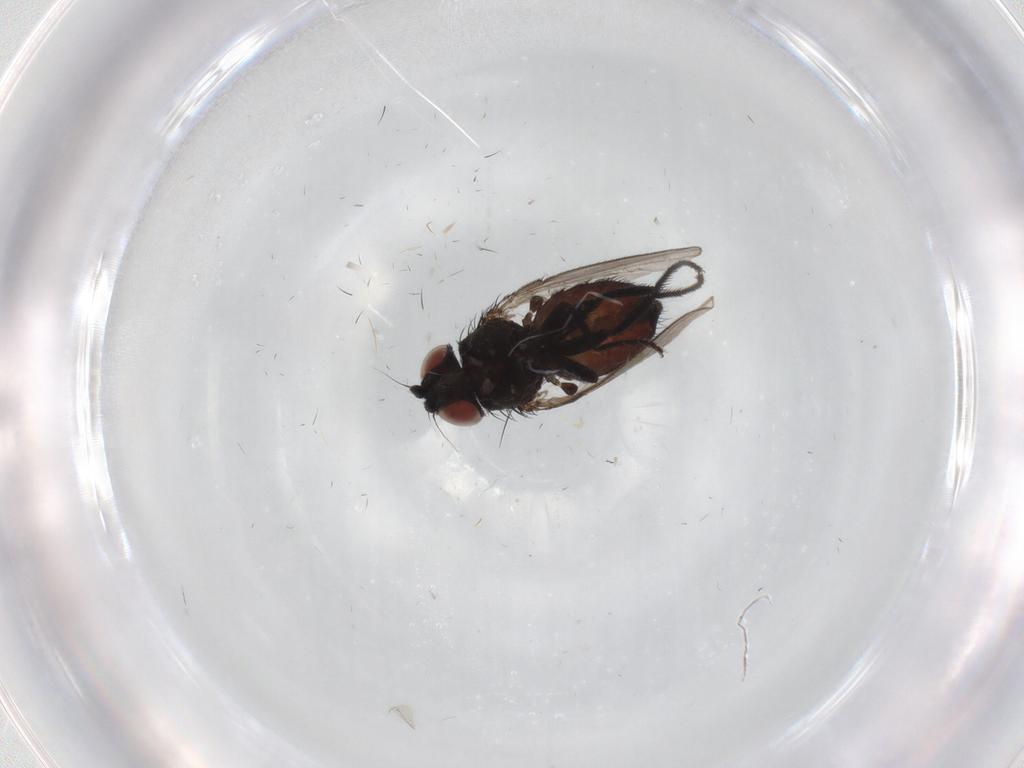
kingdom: Animalia
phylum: Arthropoda
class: Insecta
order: Diptera
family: Milichiidae
